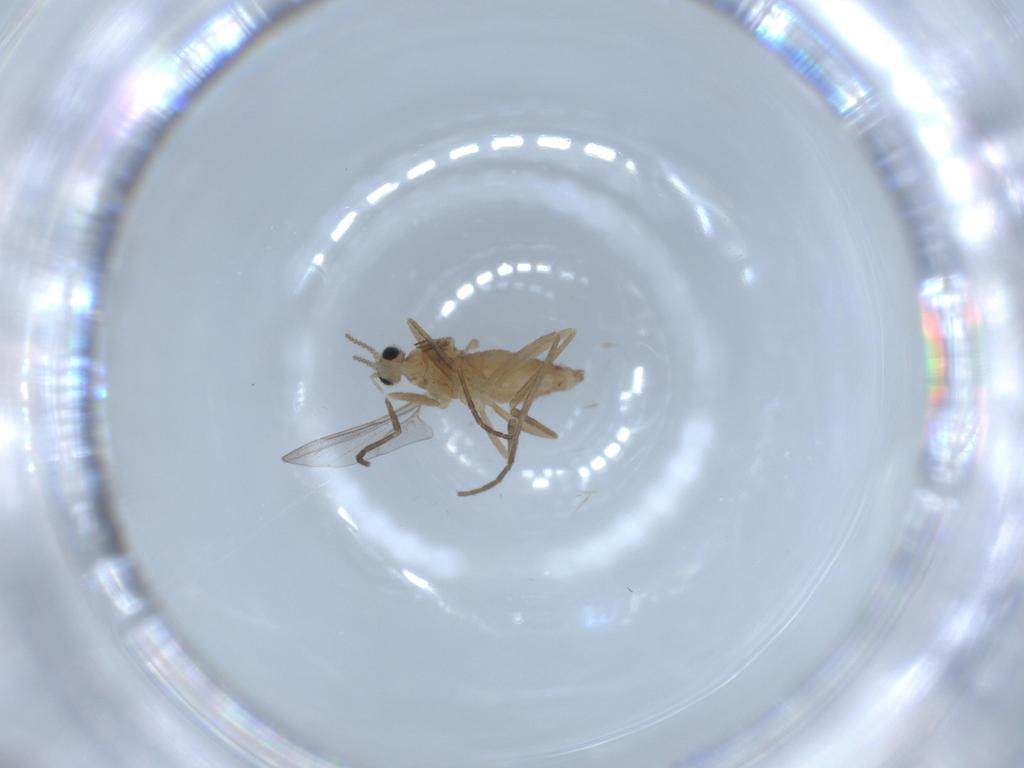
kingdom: Animalia
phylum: Arthropoda
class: Insecta
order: Diptera
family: Cecidomyiidae
